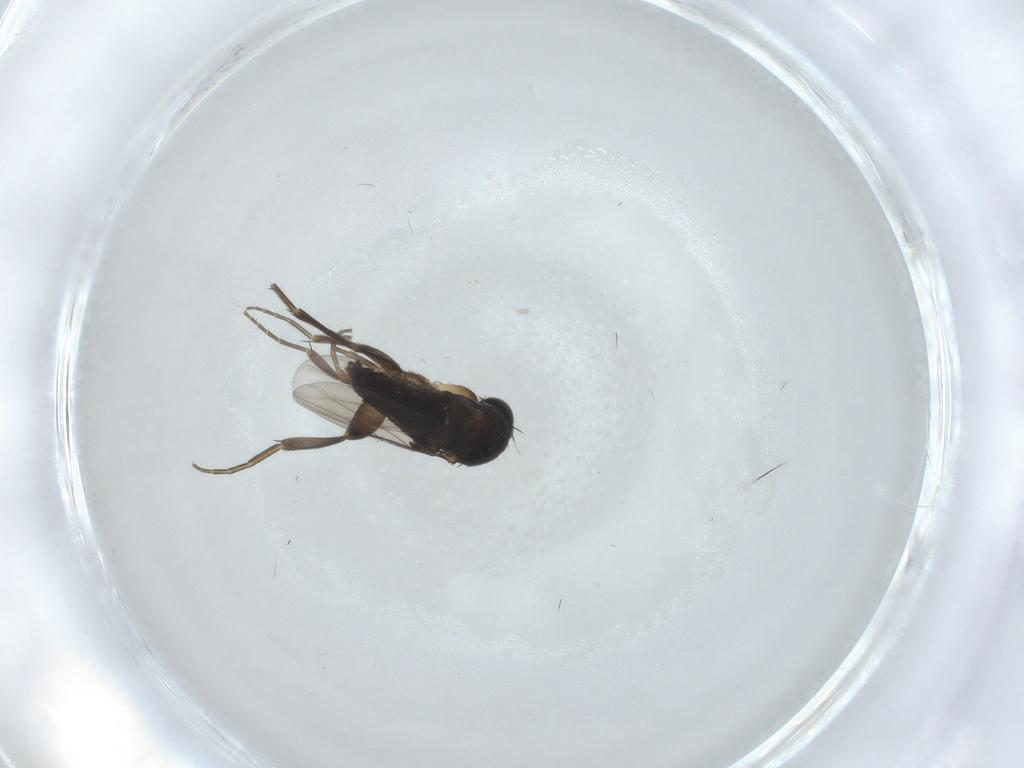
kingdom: Animalia
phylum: Arthropoda
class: Insecta
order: Diptera
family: Phoridae
